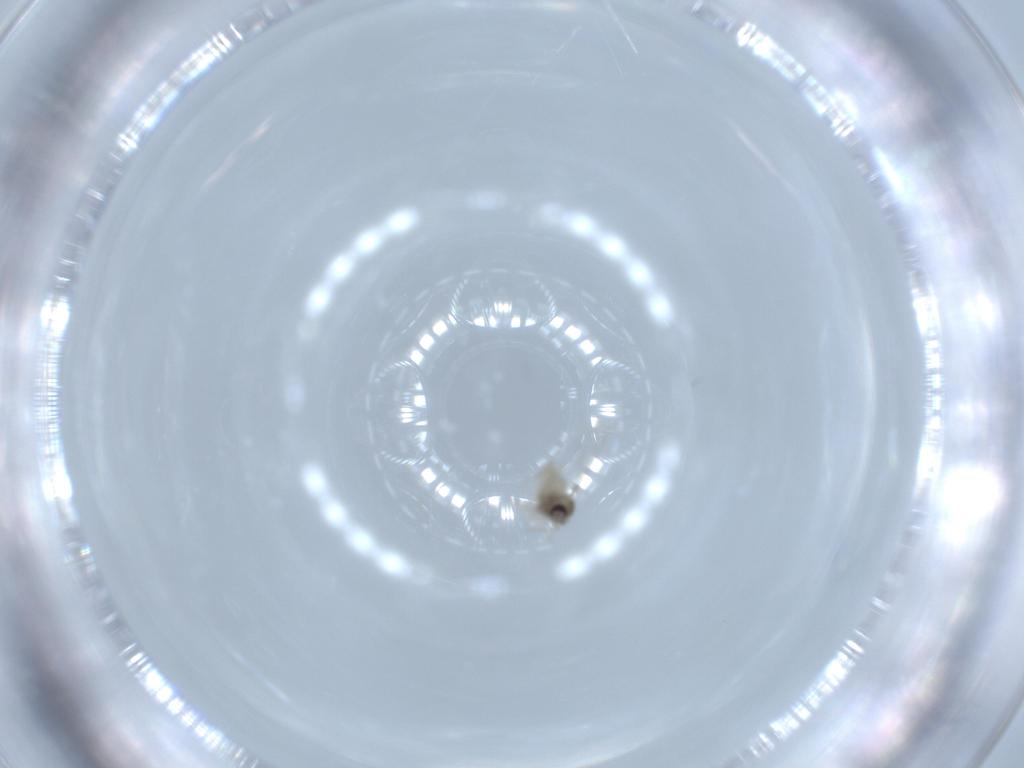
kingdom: Animalia
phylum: Arthropoda
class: Insecta
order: Diptera
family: Cecidomyiidae
